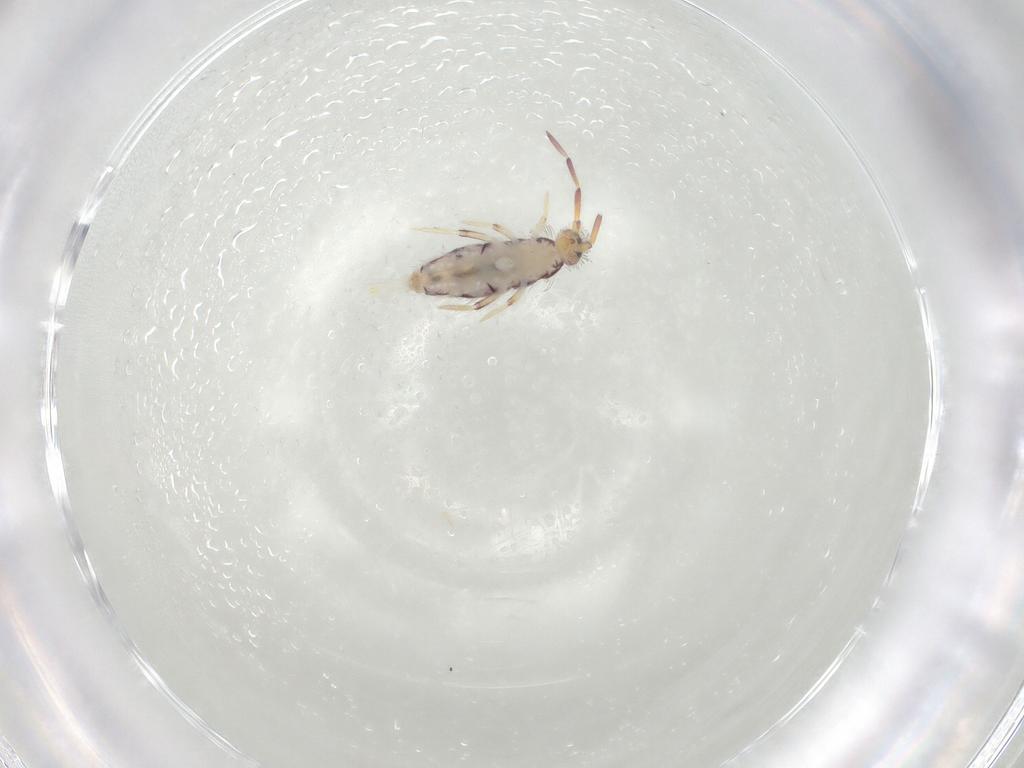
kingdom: Animalia
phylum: Arthropoda
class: Collembola
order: Entomobryomorpha
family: Entomobryidae
